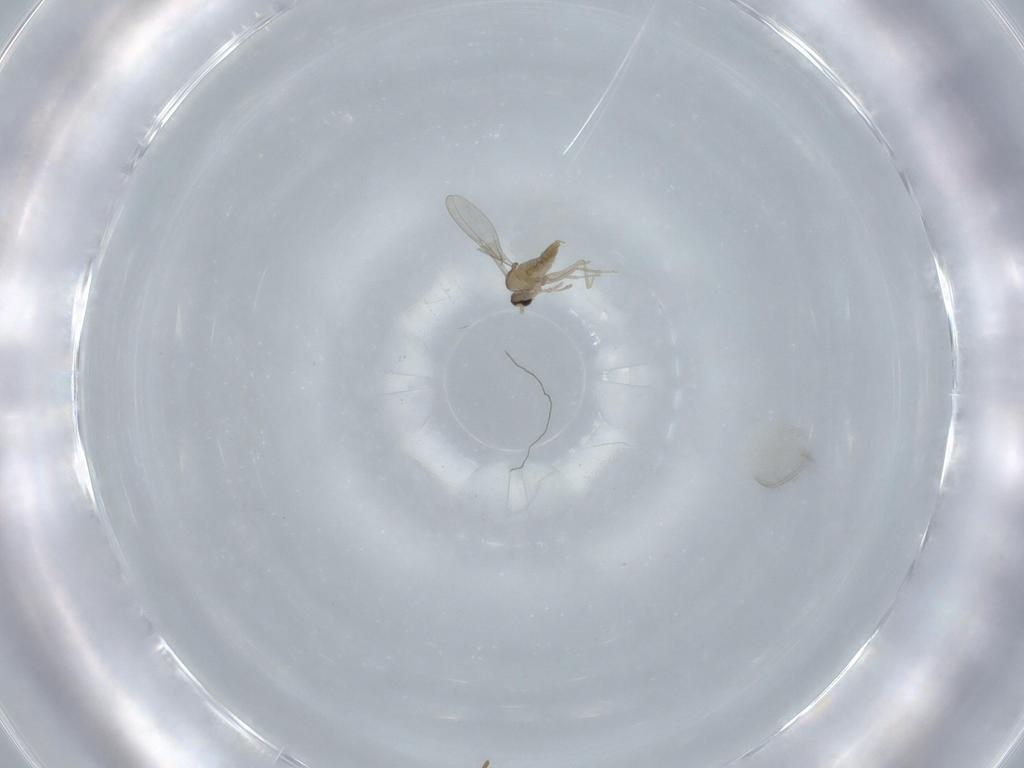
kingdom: Animalia
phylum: Arthropoda
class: Insecta
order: Diptera
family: Cecidomyiidae
